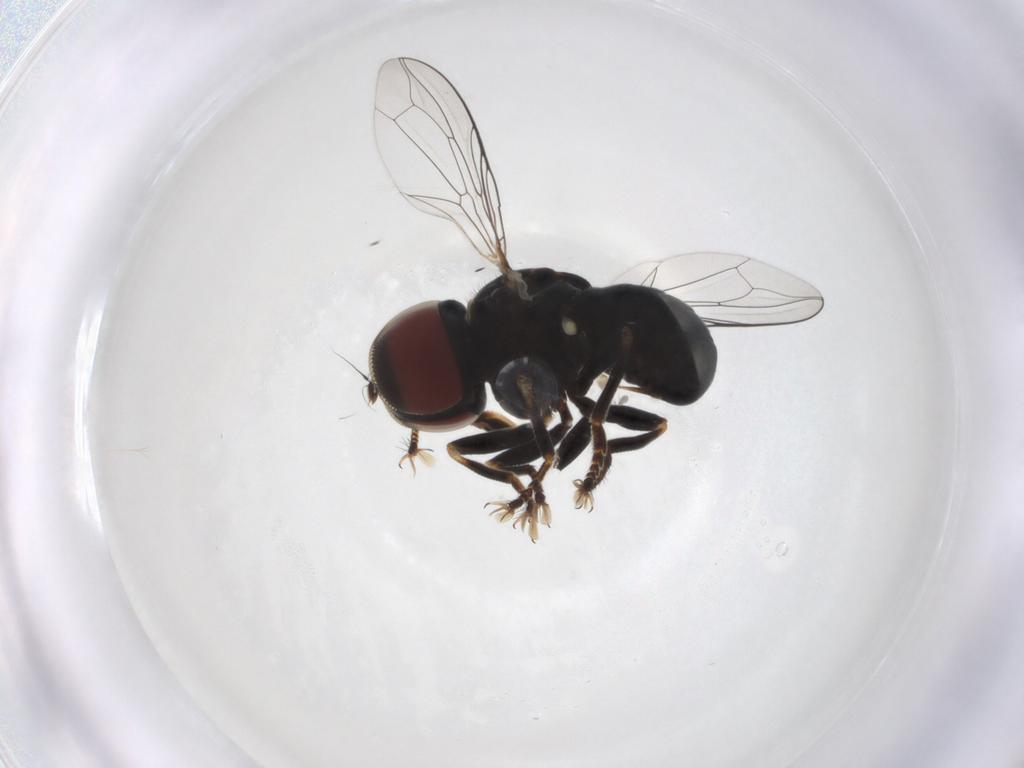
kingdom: Animalia
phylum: Arthropoda
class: Insecta
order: Diptera
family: Pipunculidae
